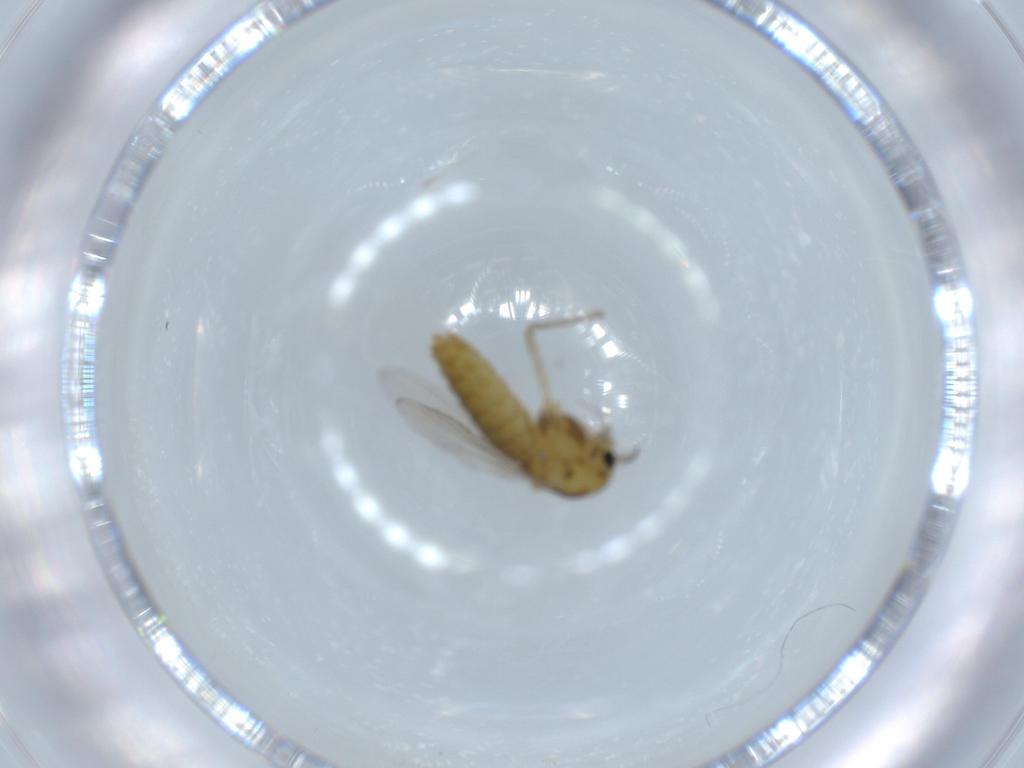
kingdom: Animalia
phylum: Arthropoda
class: Insecta
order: Diptera
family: Chironomidae
